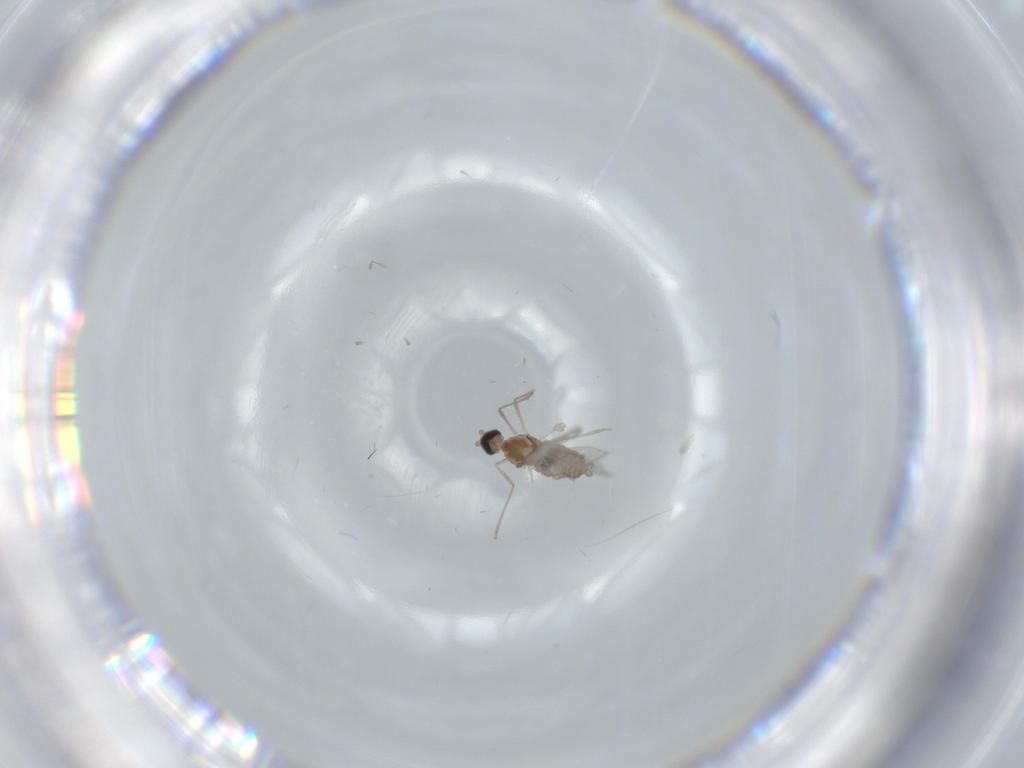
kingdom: Animalia
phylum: Arthropoda
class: Insecta
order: Diptera
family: Cecidomyiidae
